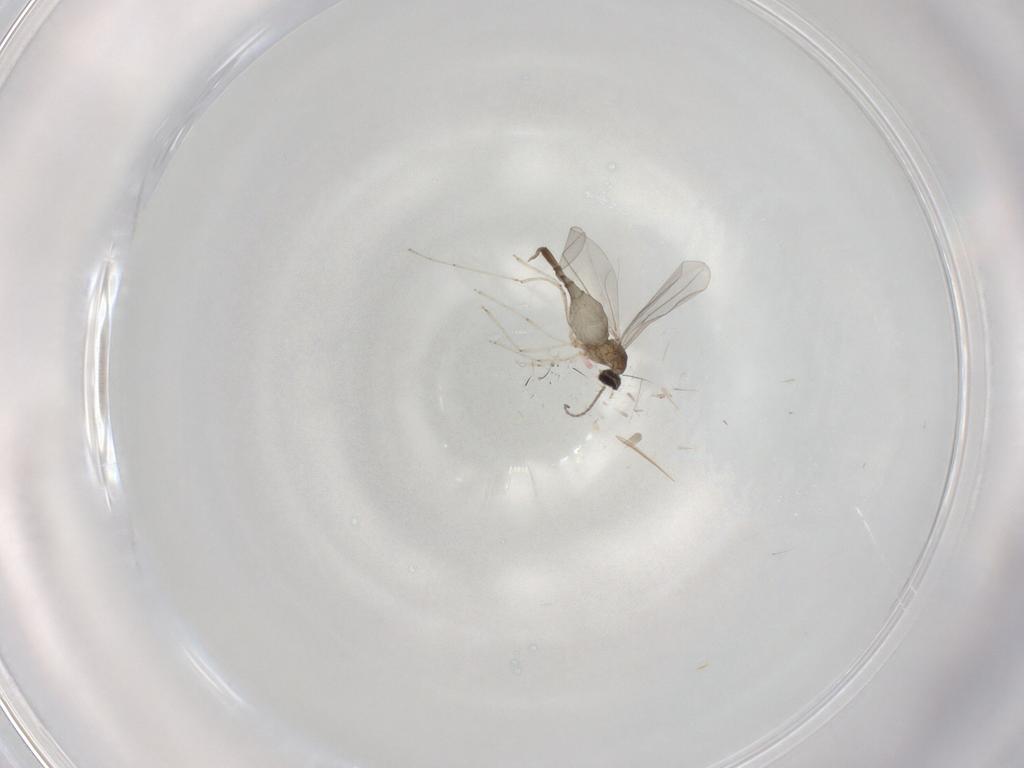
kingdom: Animalia
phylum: Arthropoda
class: Insecta
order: Diptera
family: Cecidomyiidae
